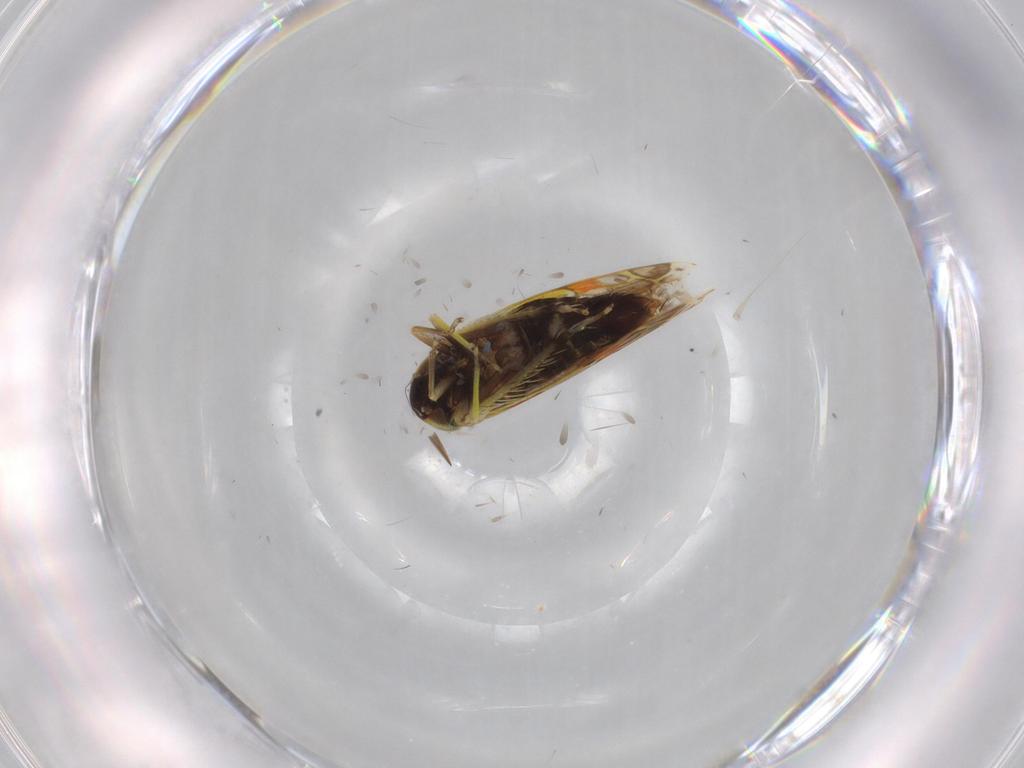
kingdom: Animalia
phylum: Arthropoda
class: Insecta
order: Hemiptera
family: Cicadellidae
